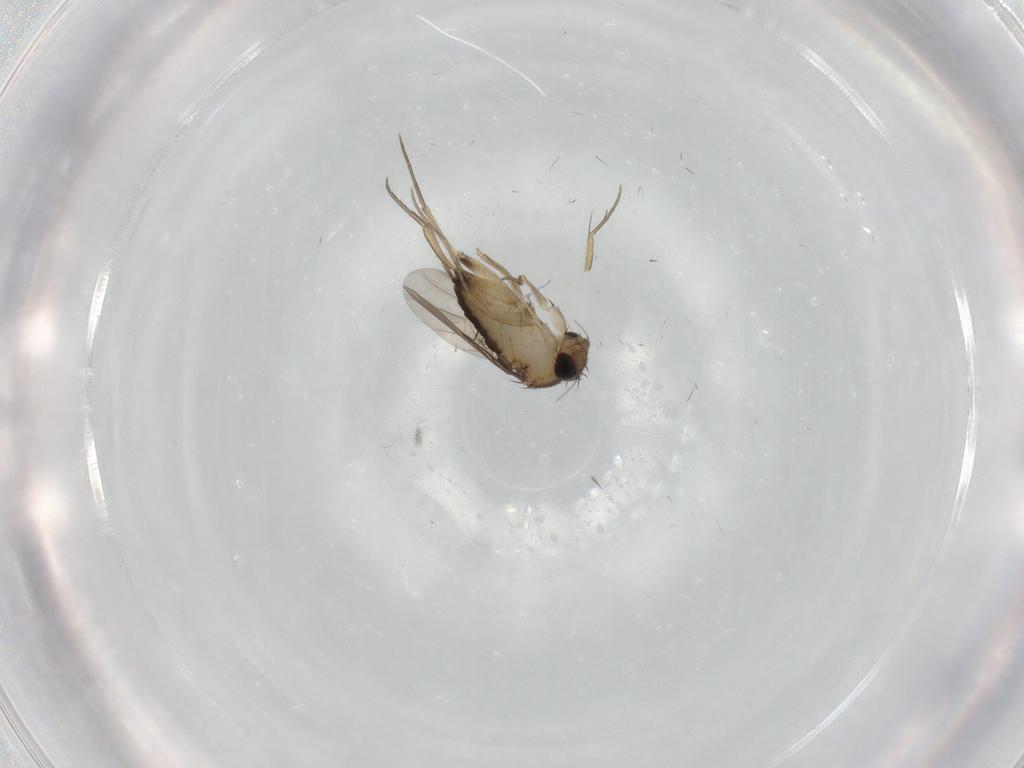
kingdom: Animalia
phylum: Arthropoda
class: Insecta
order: Diptera
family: Phoridae
